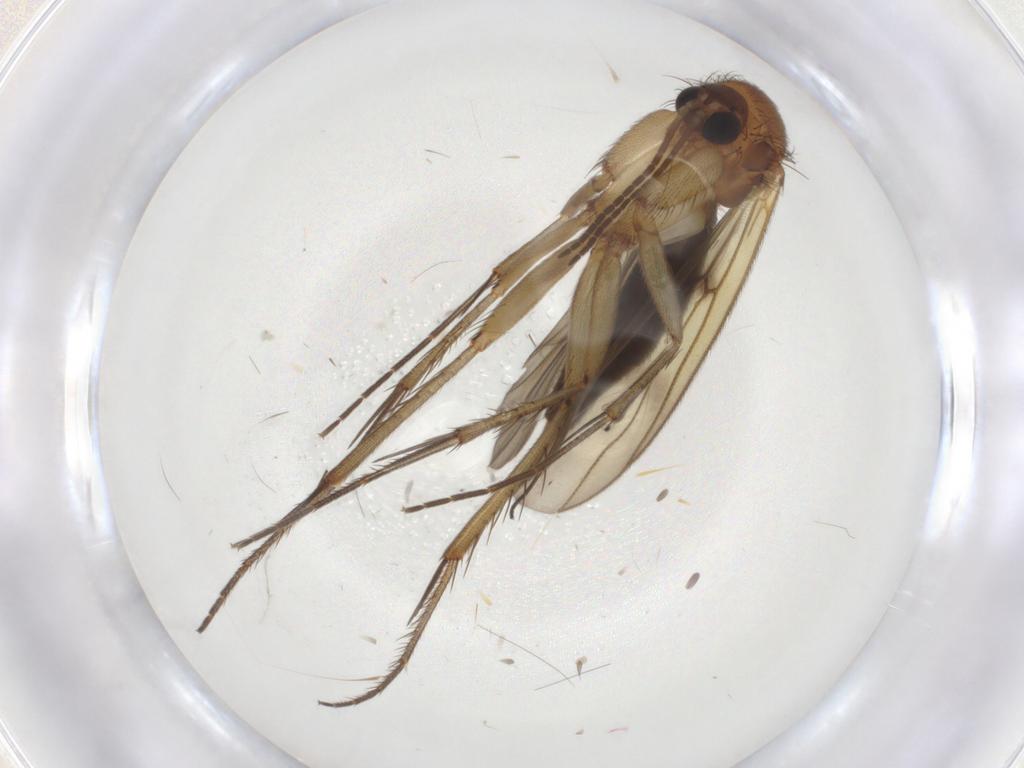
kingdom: Animalia
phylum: Arthropoda
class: Insecta
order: Diptera
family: Mycetophilidae
